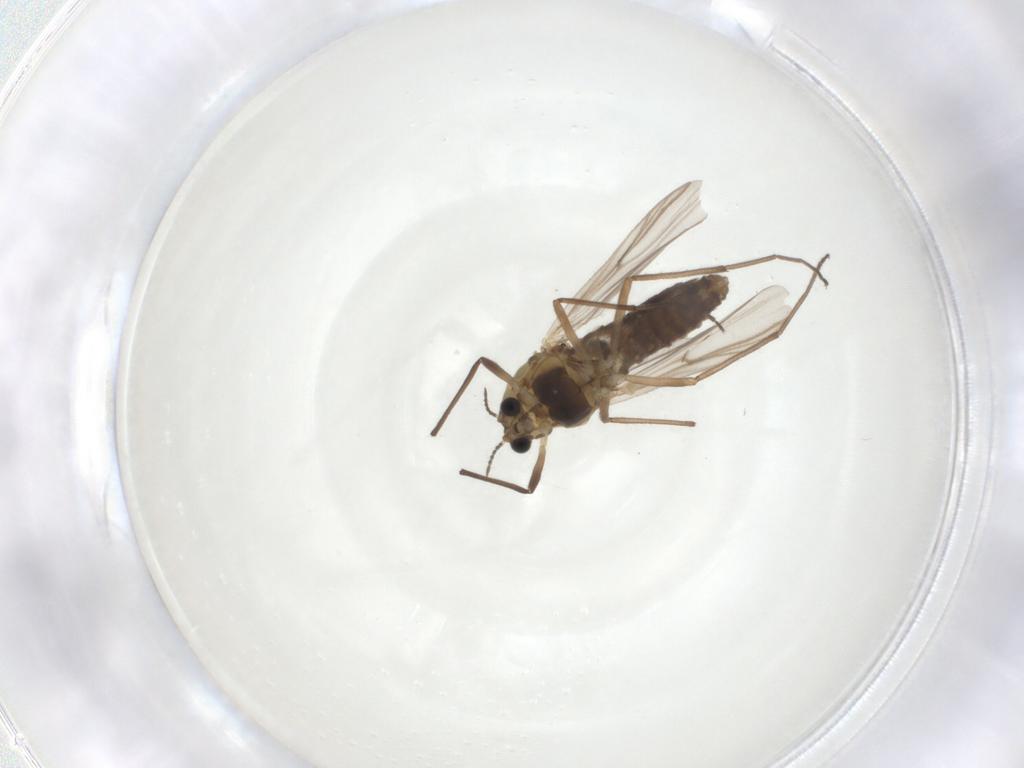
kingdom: Animalia
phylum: Arthropoda
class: Insecta
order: Diptera
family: Chironomidae
